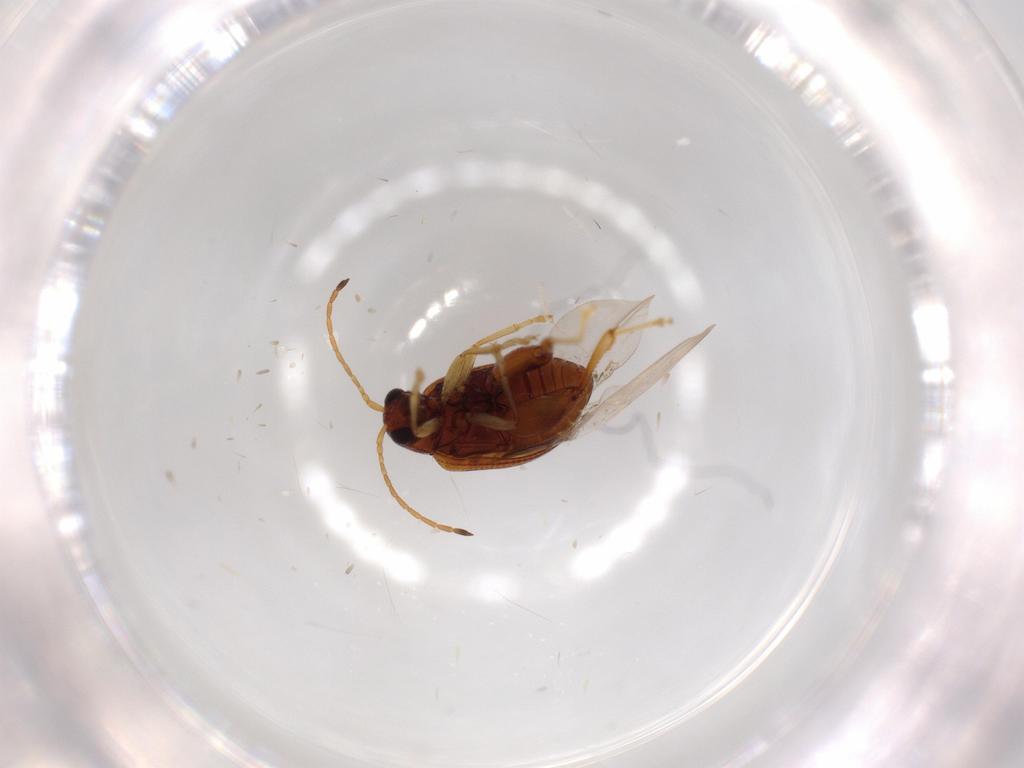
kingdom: Animalia
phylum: Arthropoda
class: Insecta
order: Coleoptera
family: Chrysomelidae
